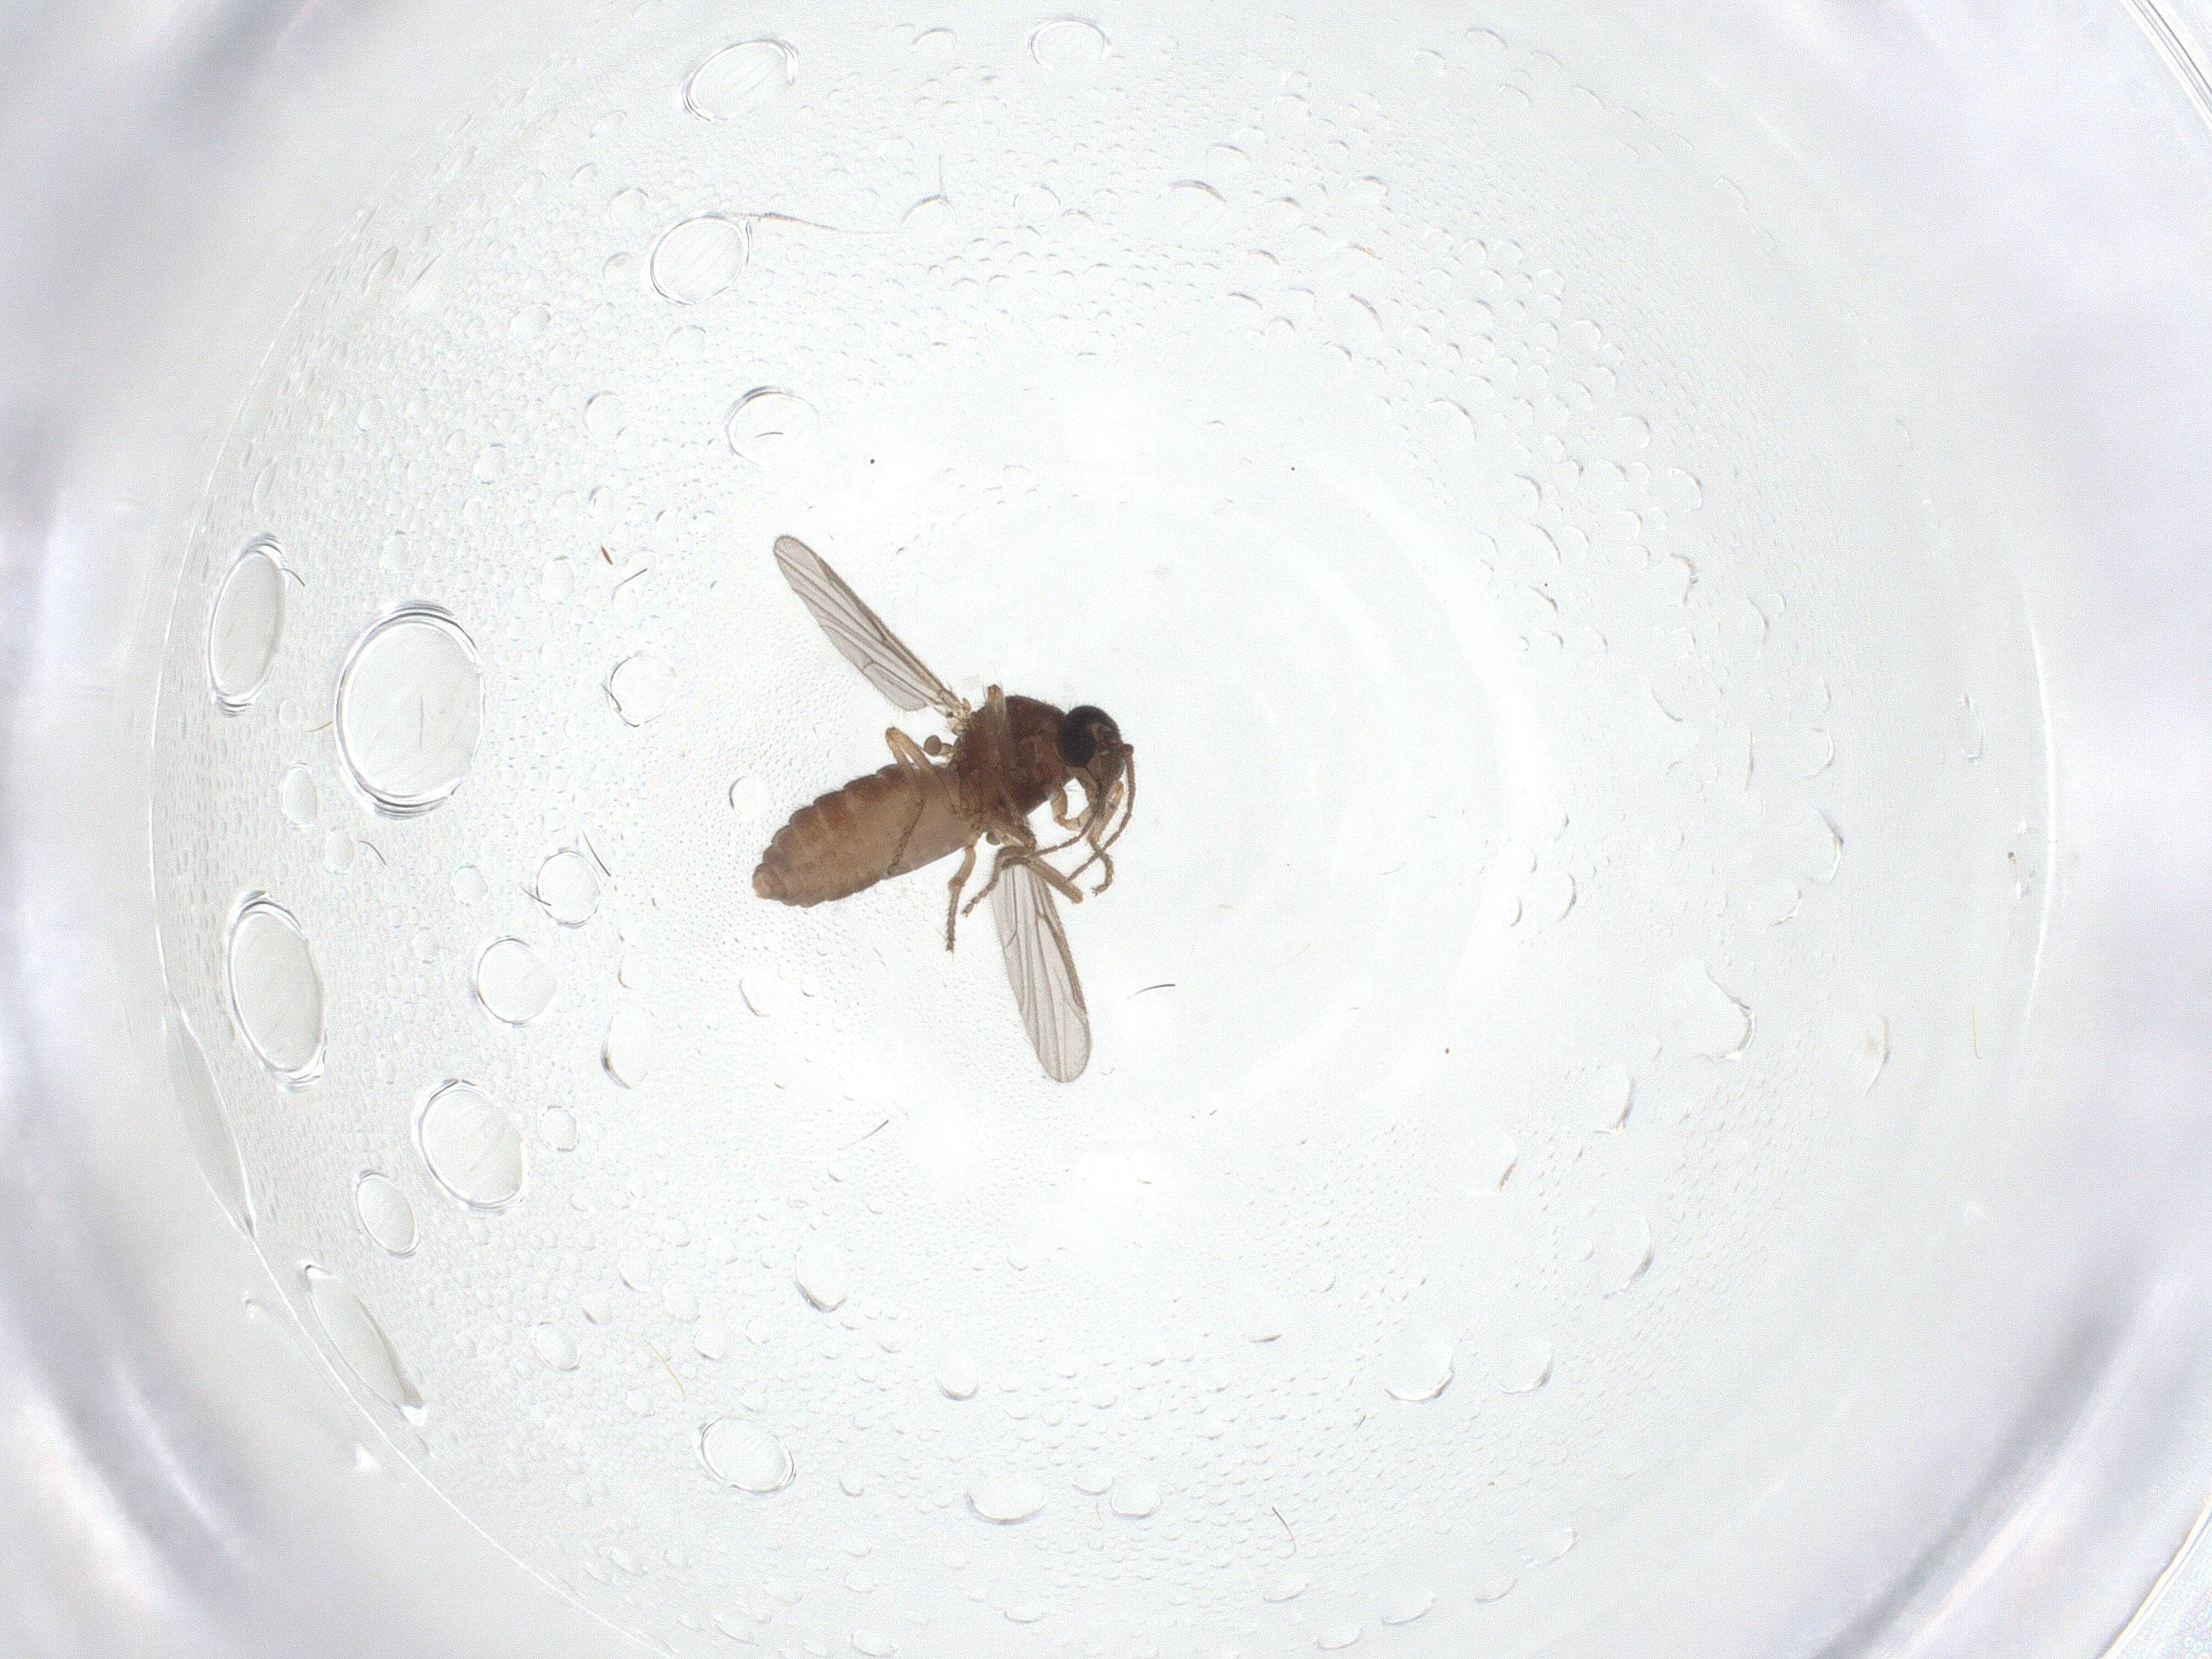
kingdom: Animalia
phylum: Arthropoda
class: Insecta
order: Diptera
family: Ceratopogonidae
